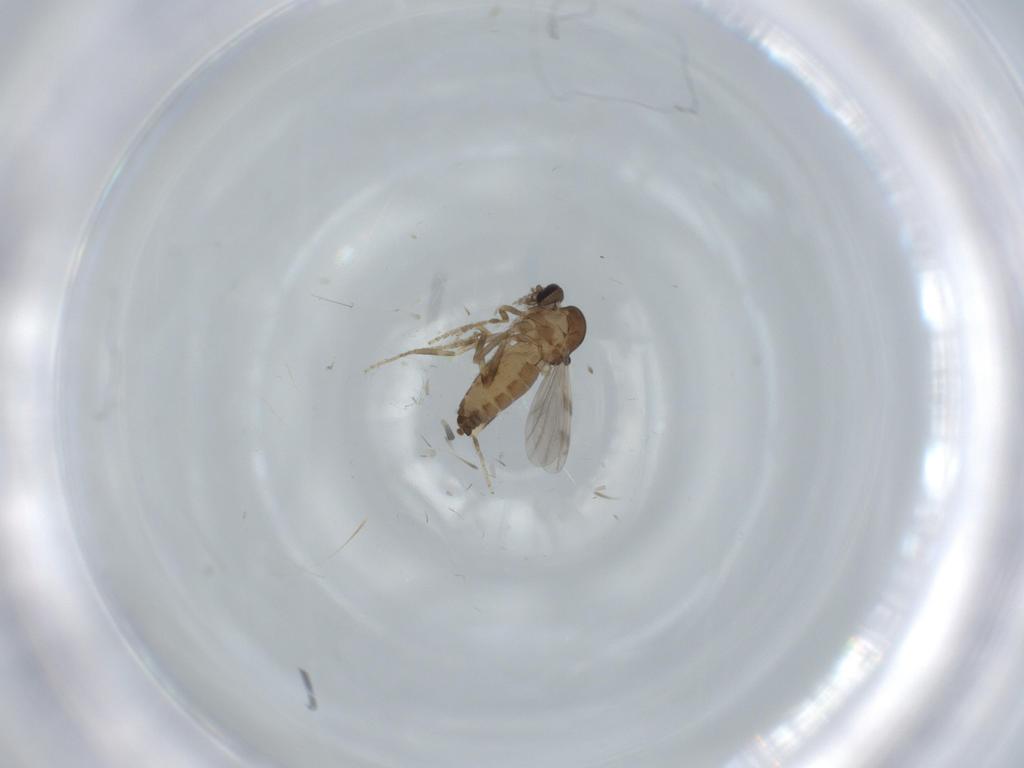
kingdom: Animalia
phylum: Arthropoda
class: Insecta
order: Diptera
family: Ceratopogonidae
